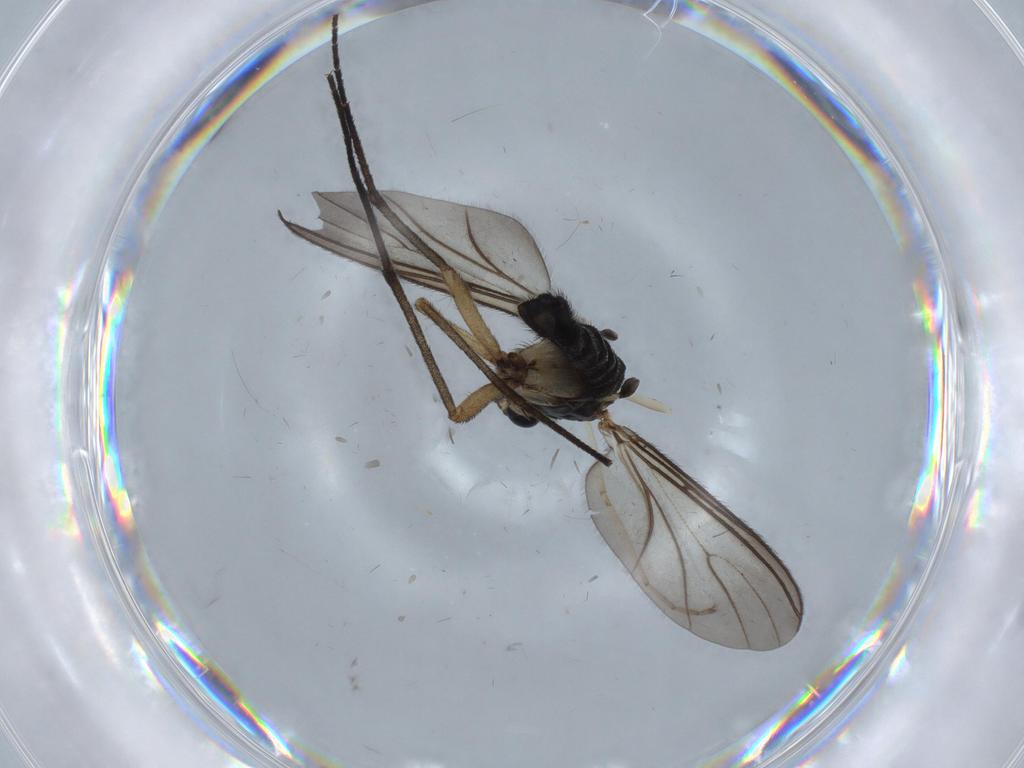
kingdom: Animalia
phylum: Arthropoda
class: Insecta
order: Diptera
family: Sciaridae
